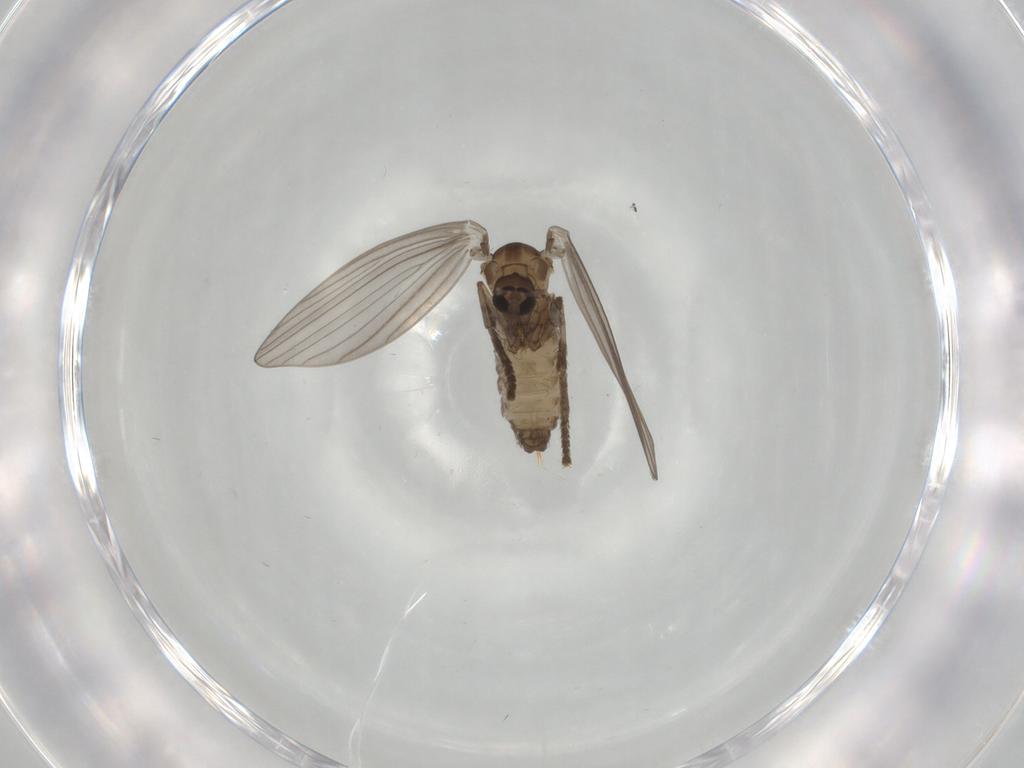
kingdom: Animalia
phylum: Arthropoda
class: Insecta
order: Diptera
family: Psychodidae
